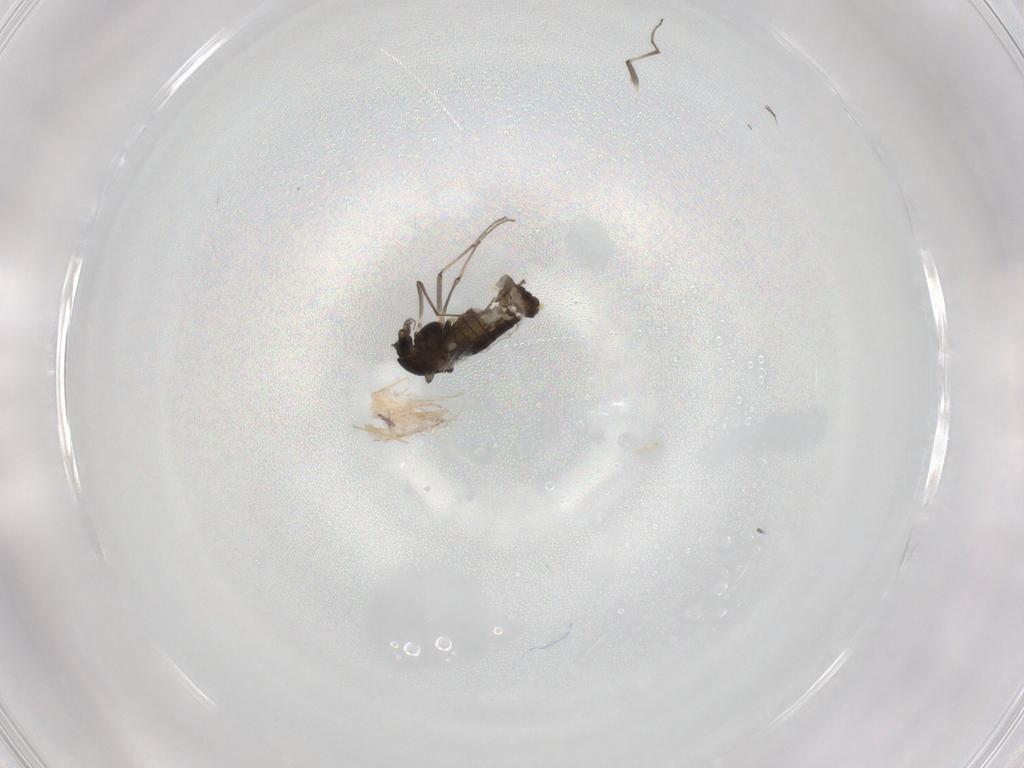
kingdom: Animalia
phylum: Arthropoda
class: Insecta
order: Diptera
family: Chironomidae
